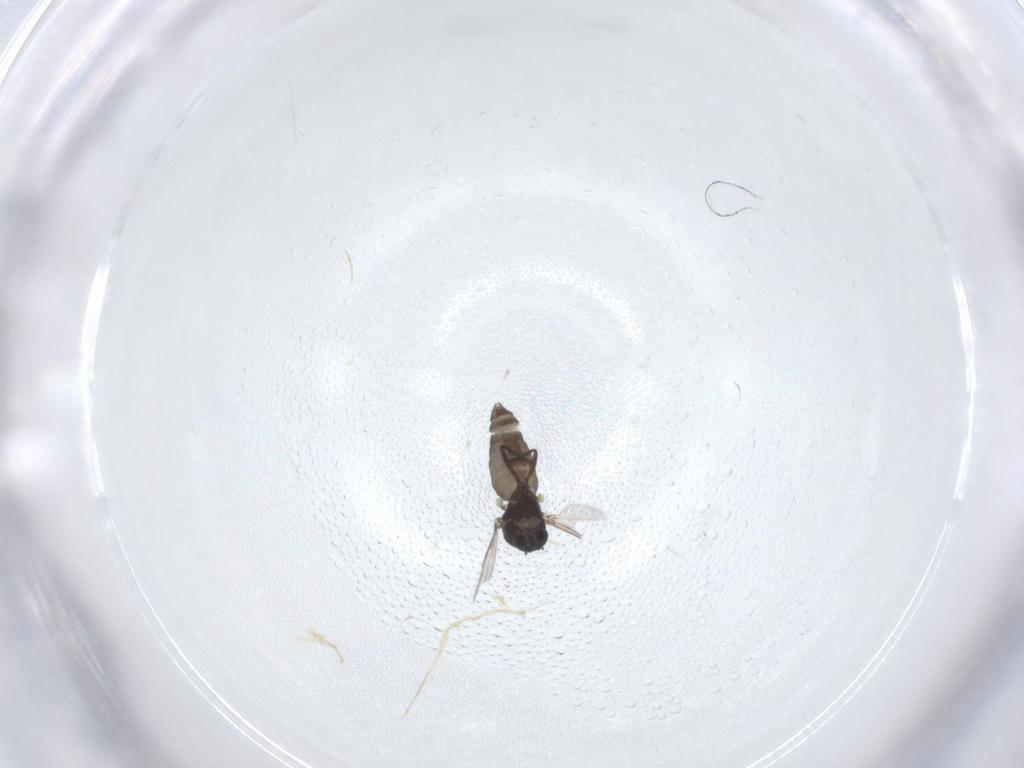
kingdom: Animalia
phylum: Arthropoda
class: Insecta
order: Diptera
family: Ceratopogonidae
